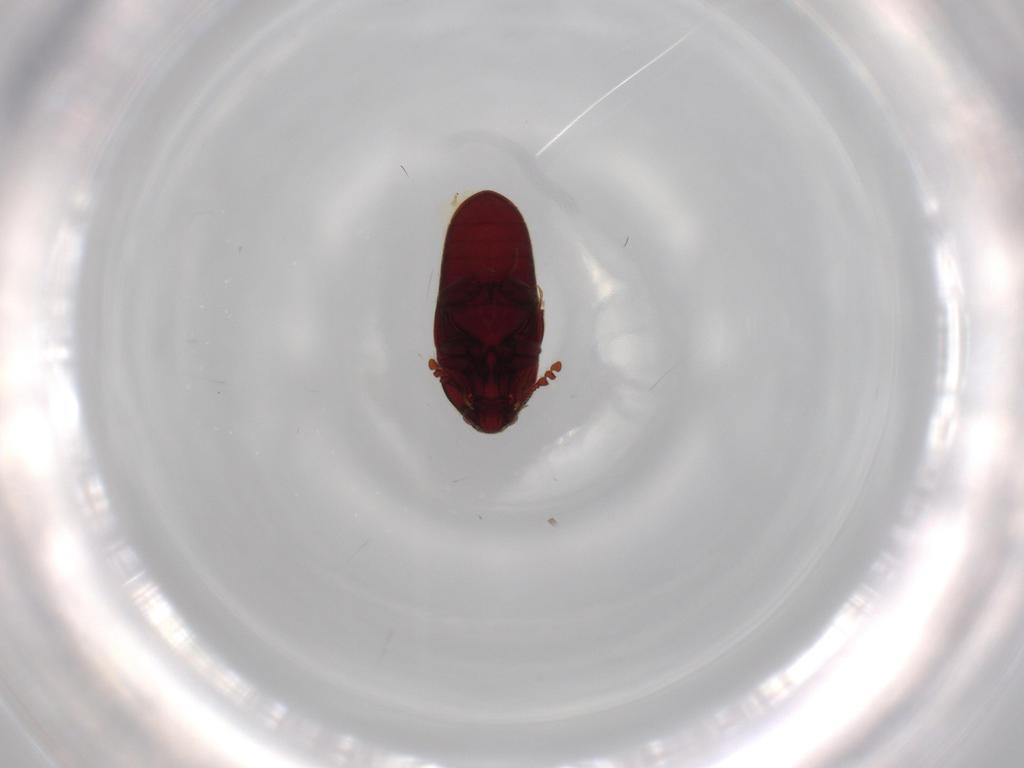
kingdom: Animalia
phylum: Arthropoda
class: Insecta
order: Coleoptera
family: Throscidae
